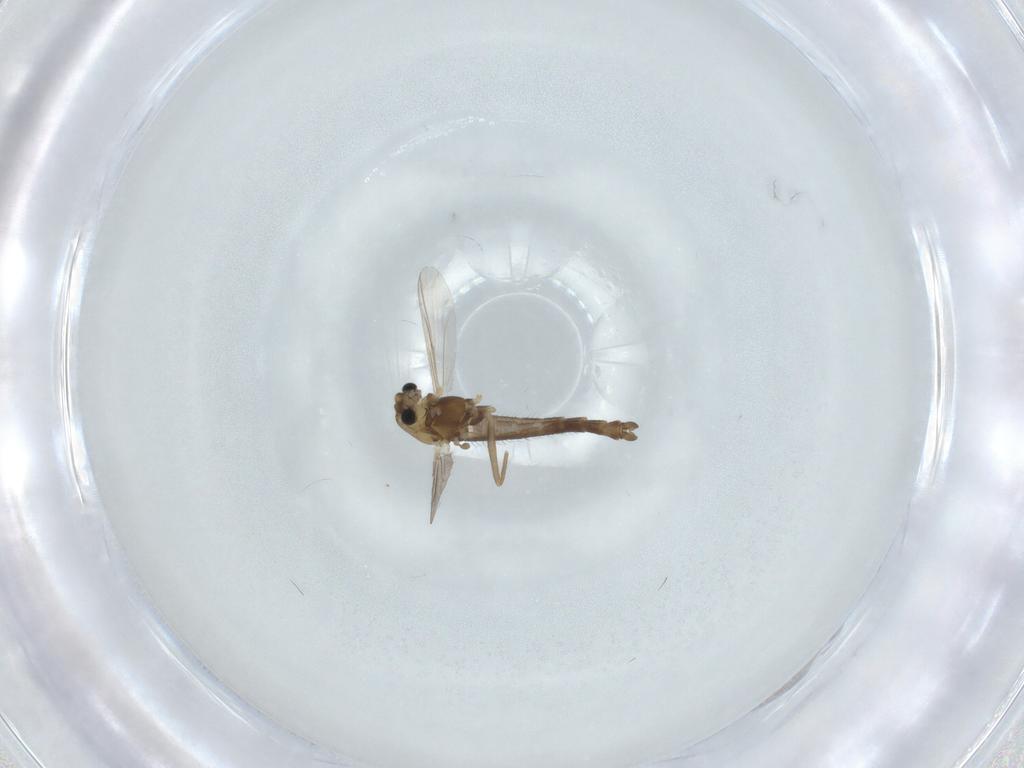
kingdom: Animalia
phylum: Arthropoda
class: Insecta
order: Diptera
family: Chironomidae
